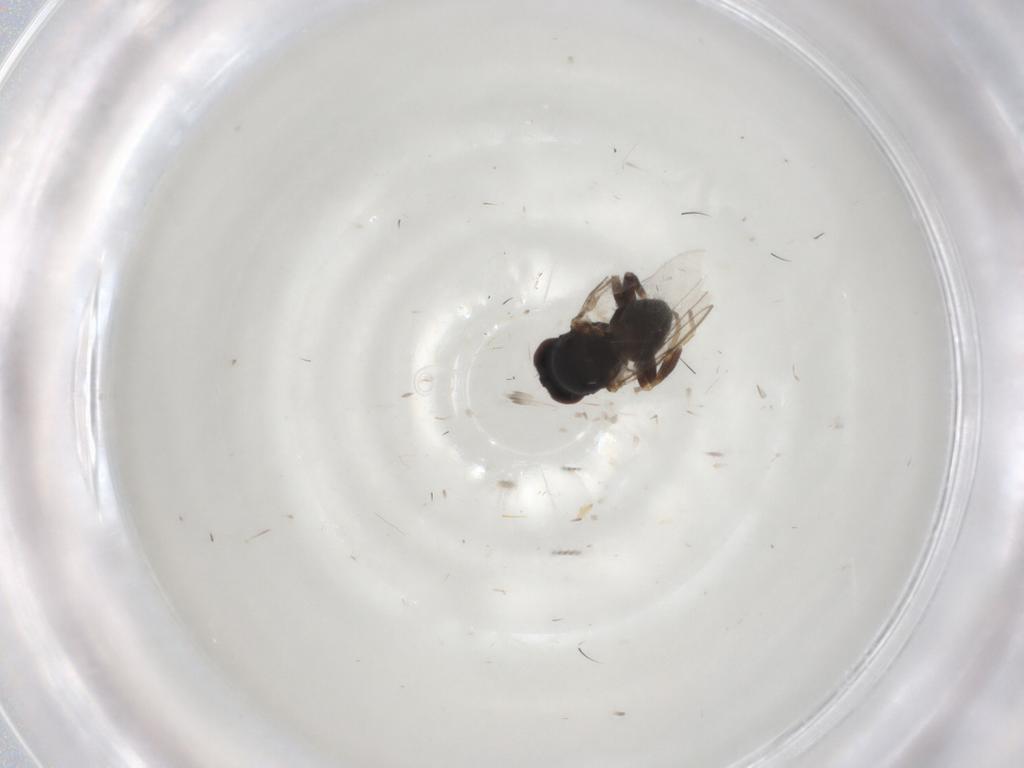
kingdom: Animalia
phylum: Arthropoda
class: Insecta
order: Diptera
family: Chloropidae
